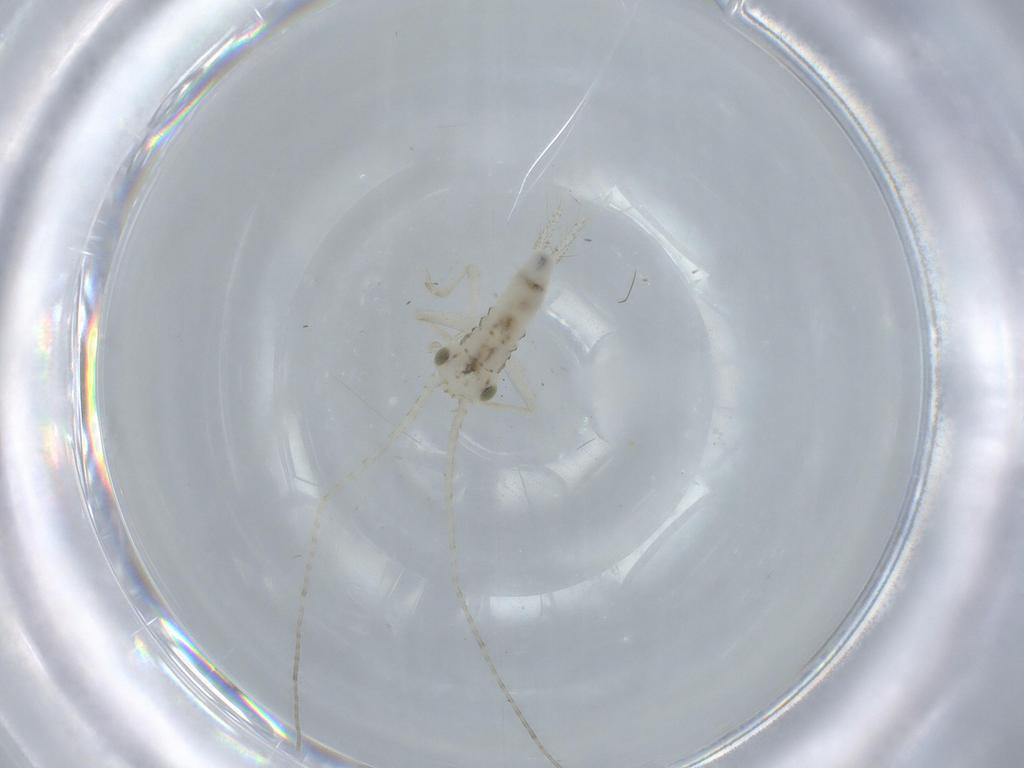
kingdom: Animalia
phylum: Arthropoda
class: Insecta
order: Orthoptera
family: Trigonidiidae
